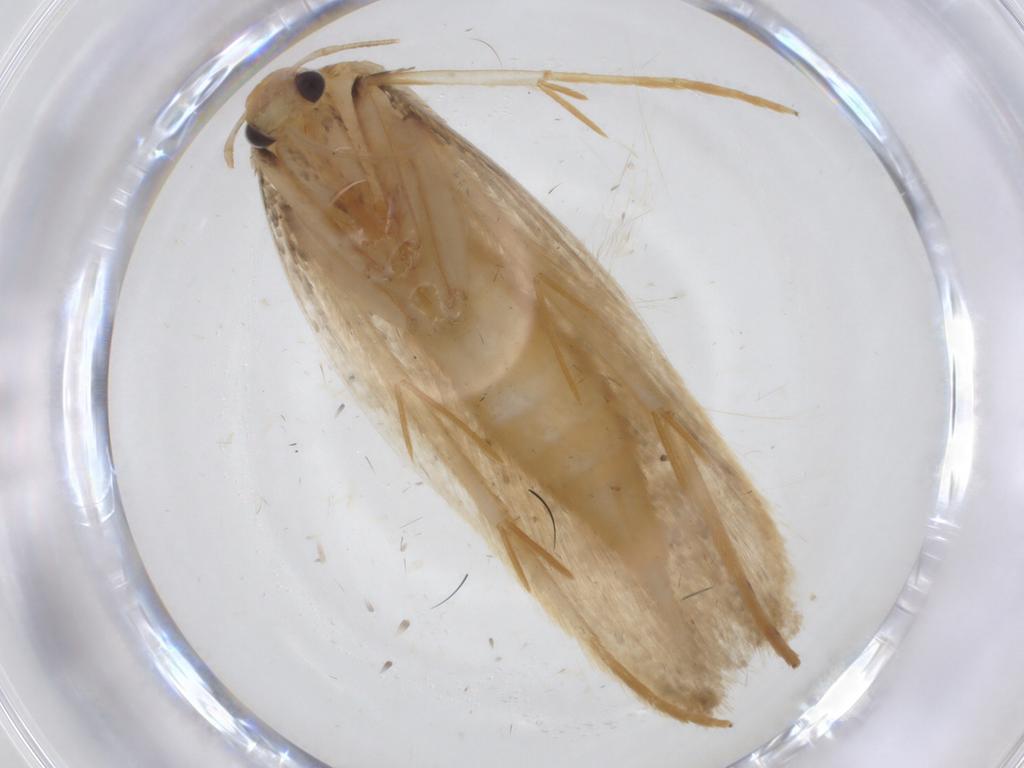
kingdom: Animalia
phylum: Arthropoda
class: Insecta
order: Lepidoptera
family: Gelechiidae
